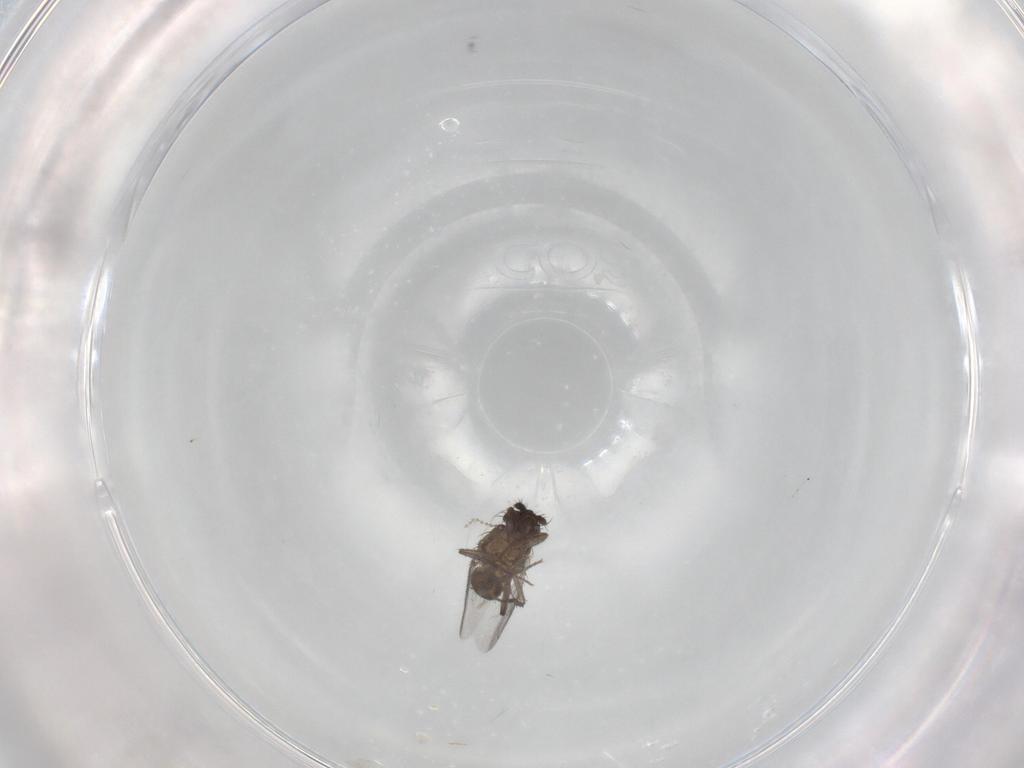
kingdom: Animalia
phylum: Arthropoda
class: Insecta
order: Diptera
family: Sphaeroceridae
